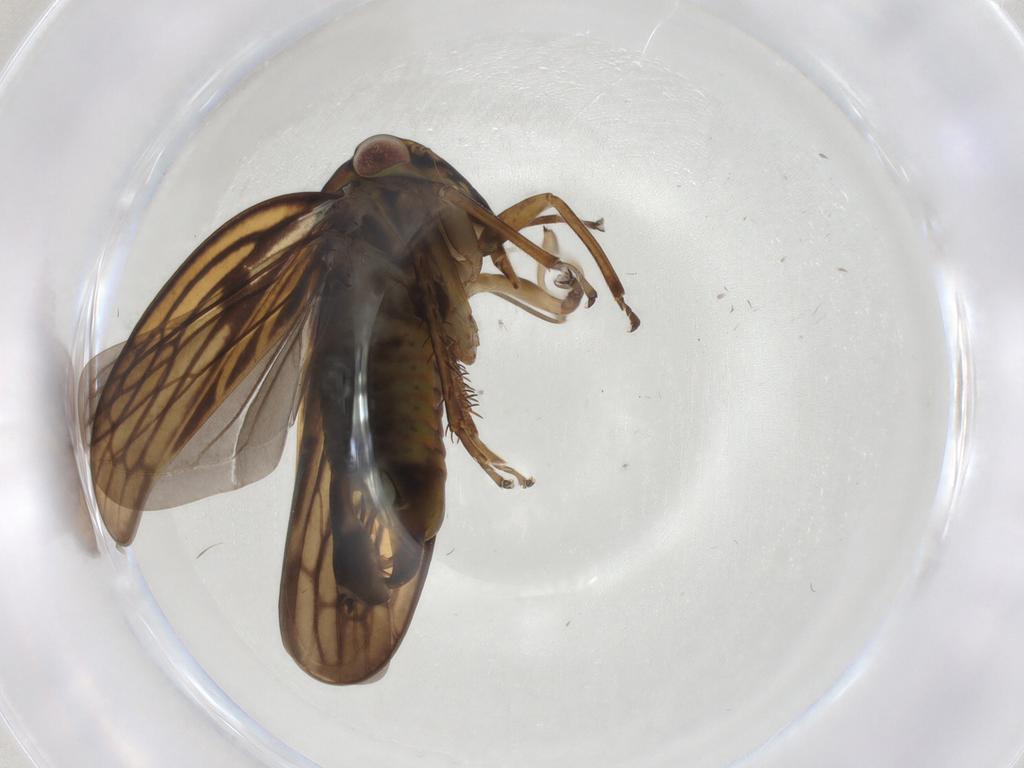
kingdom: Animalia
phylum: Arthropoda
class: Insecta
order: Hemiptera
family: Cicadellidae
